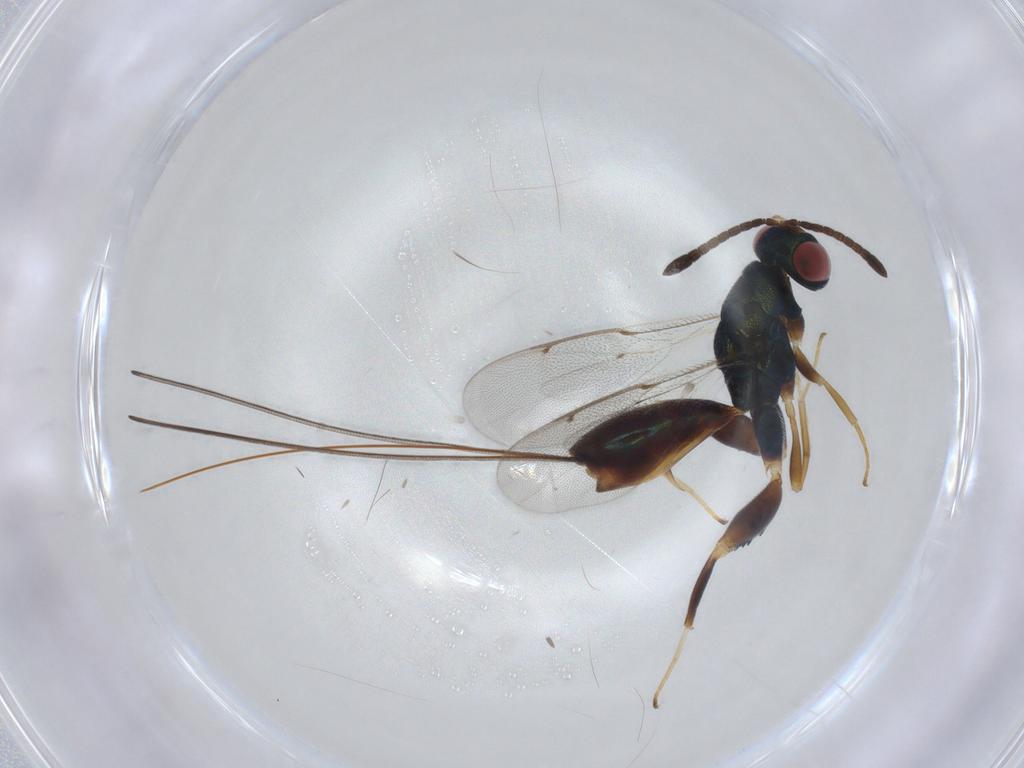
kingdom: Animalia
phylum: Arthropoda
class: Insecta
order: Hymenoptera
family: Torymidae
